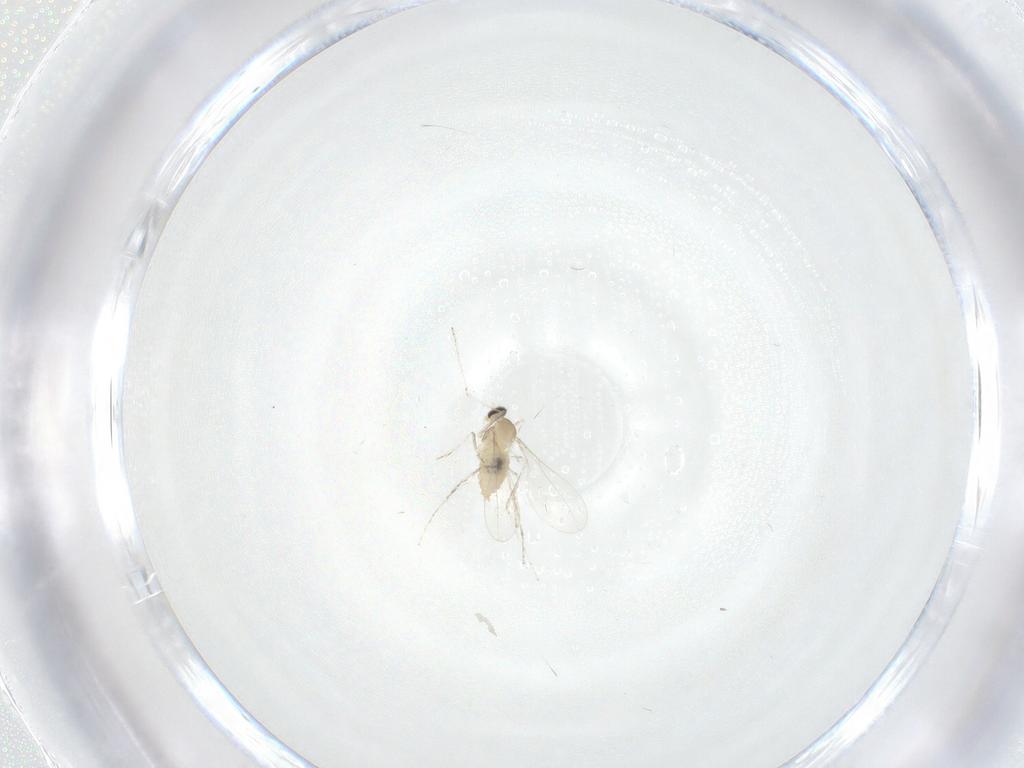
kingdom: Animalia
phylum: Arthropoda
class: Insecta
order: Diptera
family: Cecidomyiidae
